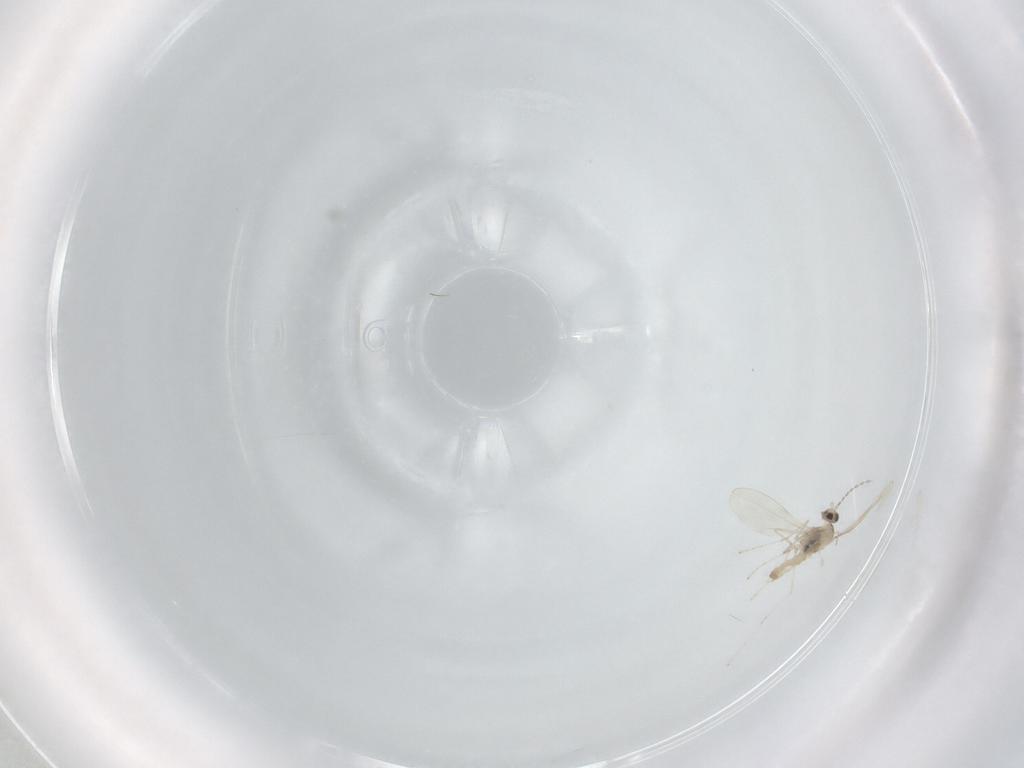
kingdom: Animalia
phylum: Arthropoda
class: Insecta
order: Diptera
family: Cecidomyiidae
